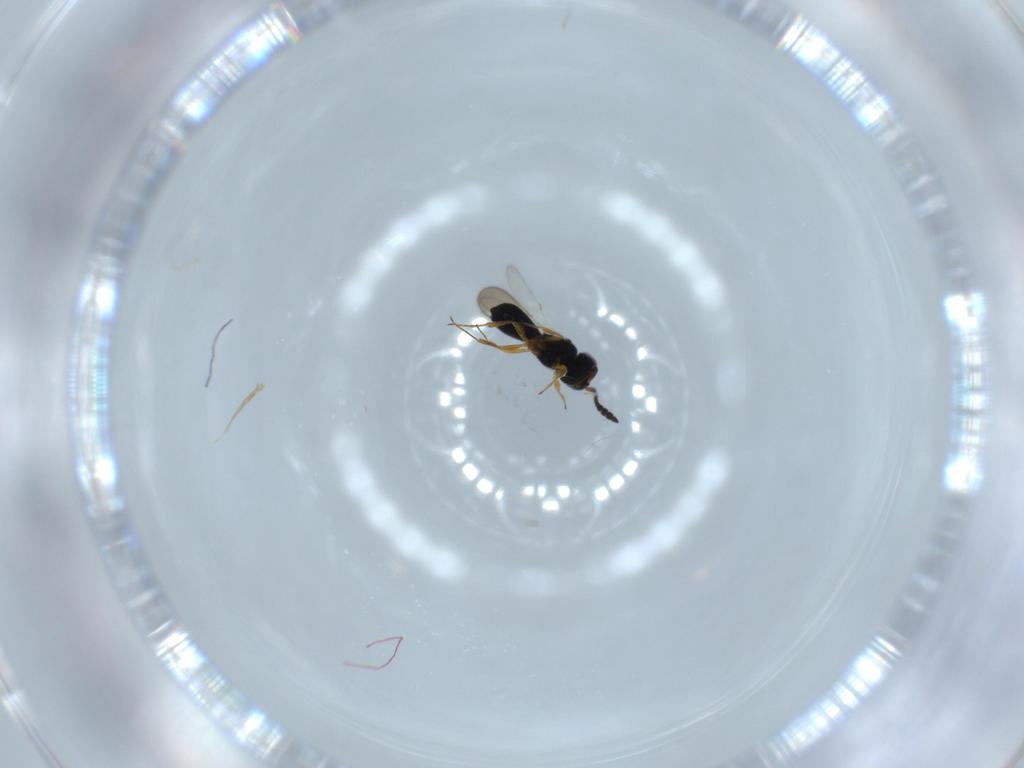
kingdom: Animalia
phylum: Arthropoda
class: Insecta
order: Hymenoptera
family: Scelionidae
